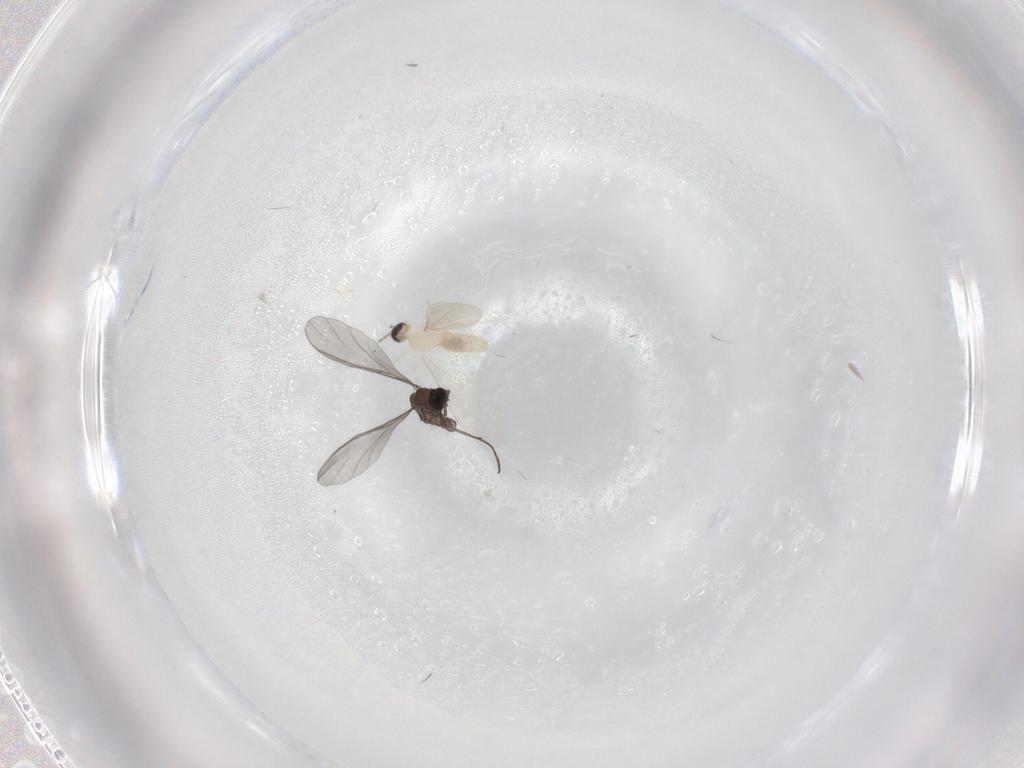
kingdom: Animalia
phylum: Arthropoda
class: Insecta
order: Diptera
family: Sciaridae
